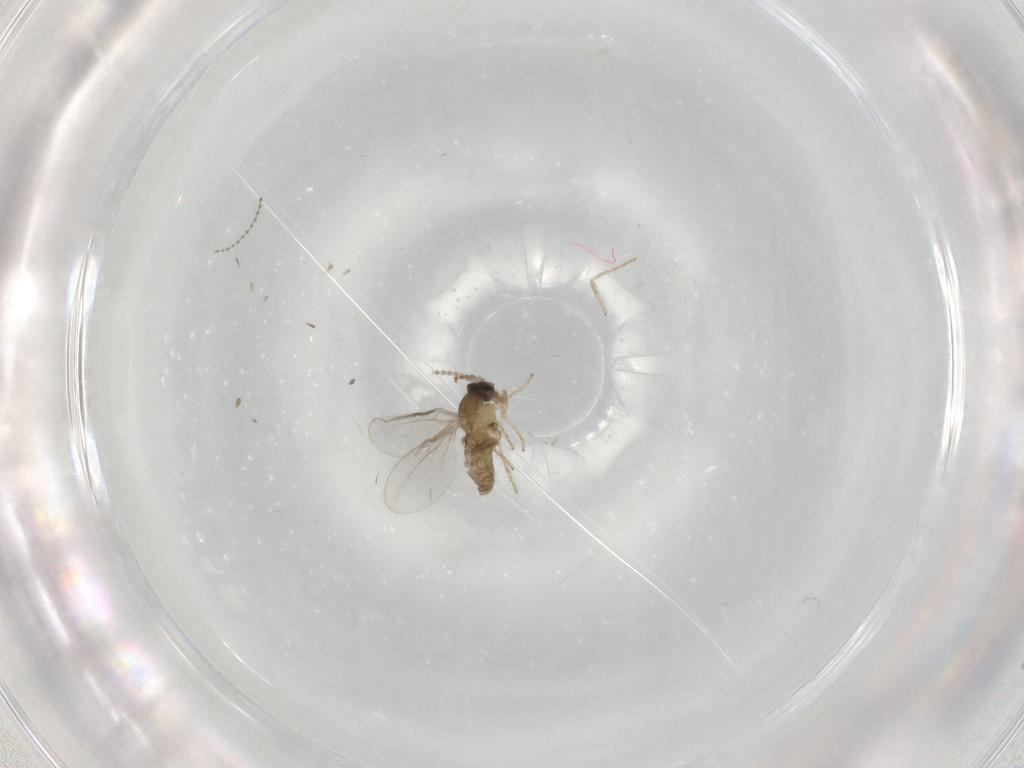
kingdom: Animalia
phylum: Arthropoda
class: Insecta
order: Diptera
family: Cecidomyiidae
